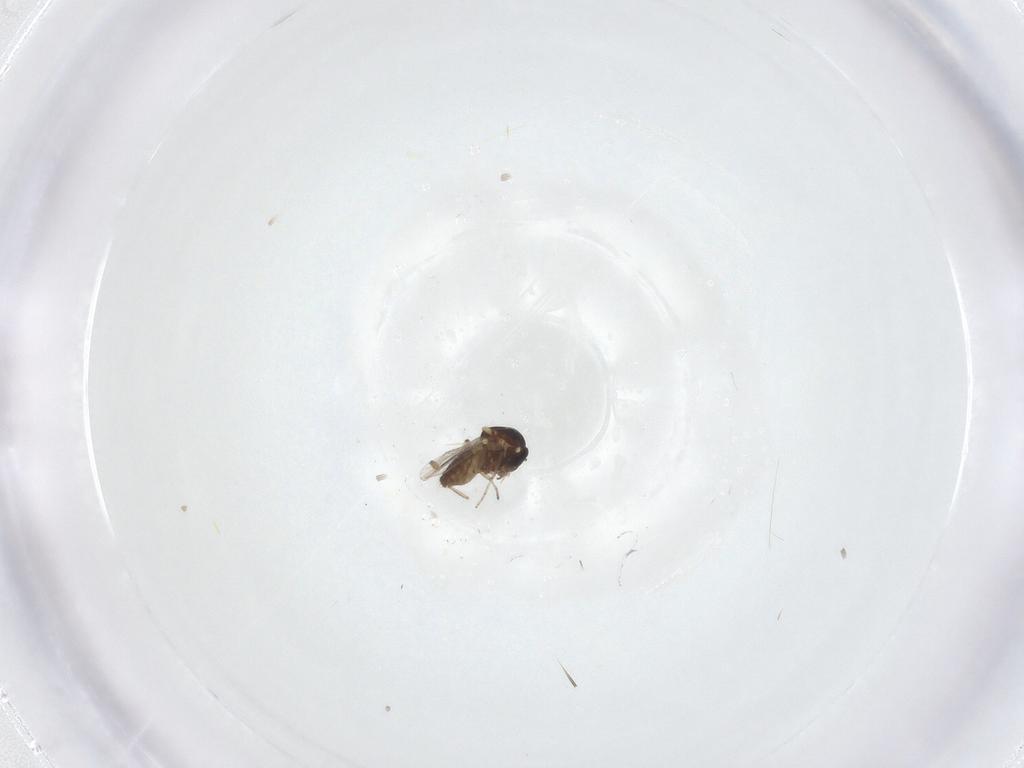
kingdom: Animalia
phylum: Arthropoda
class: Insecta
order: Diptera
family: Ceratopogonidae
